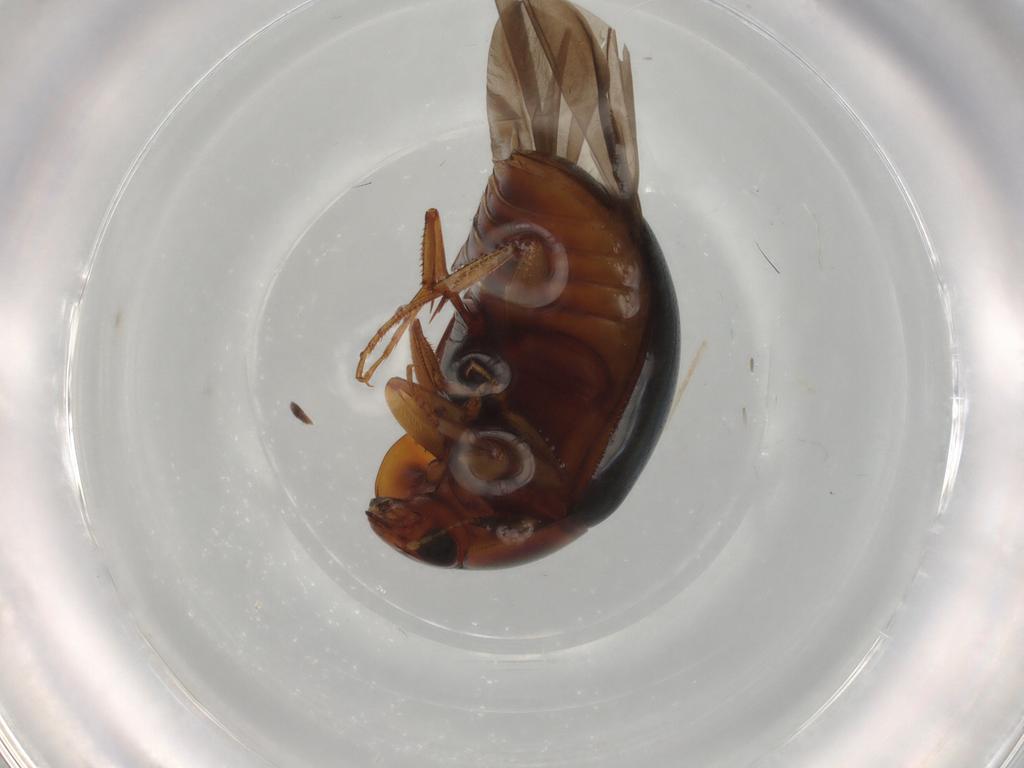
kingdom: Animalia
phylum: Arthropoda
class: Insecta
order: Coleoptera
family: Nitidulidae
